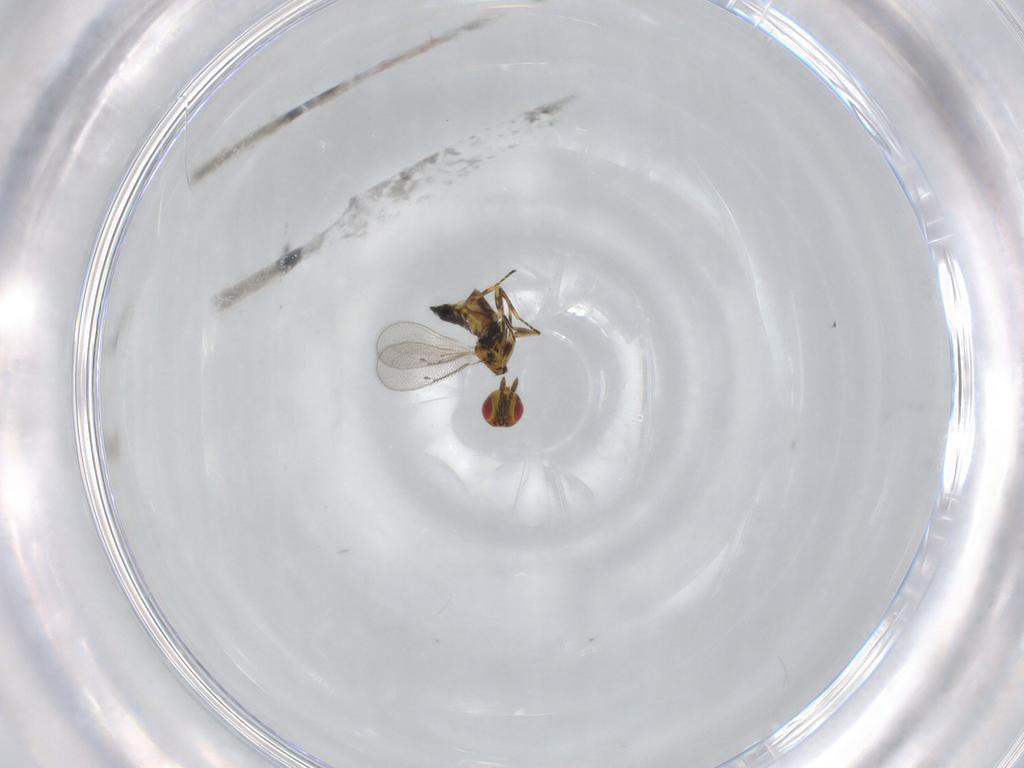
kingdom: Animalia
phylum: Arthropoda
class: Insecta
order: Hymenoptera
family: Eulophidae
